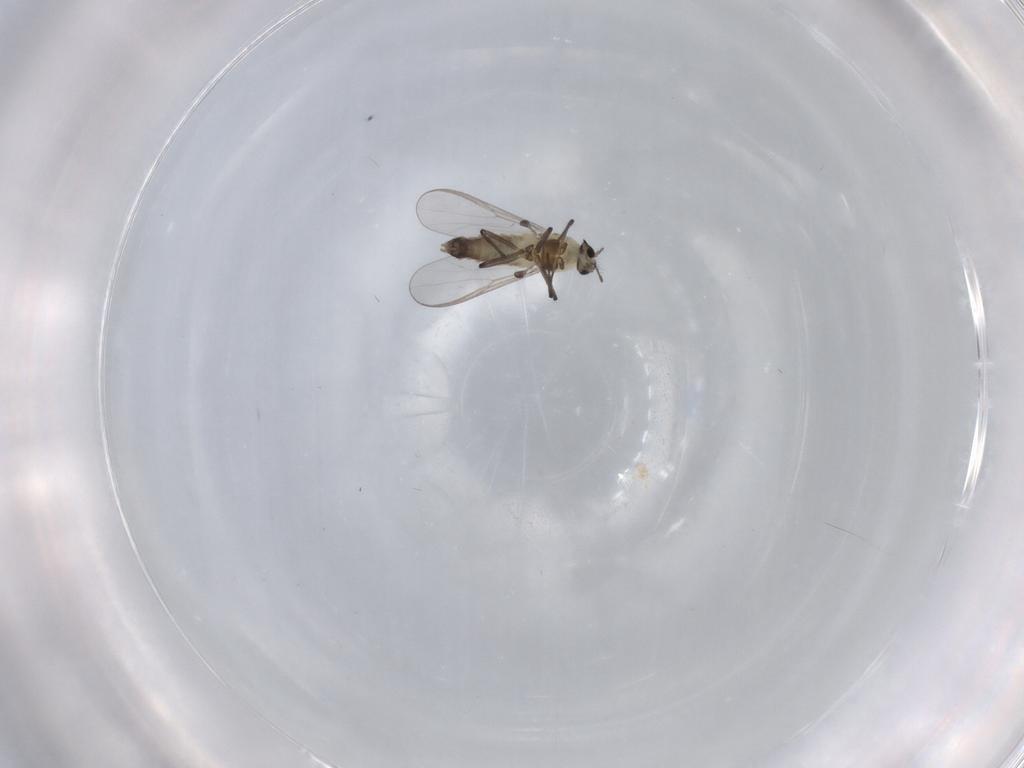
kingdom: Animalia
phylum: Arthropoda
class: Insecta
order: Diptera
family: Chironomidae
